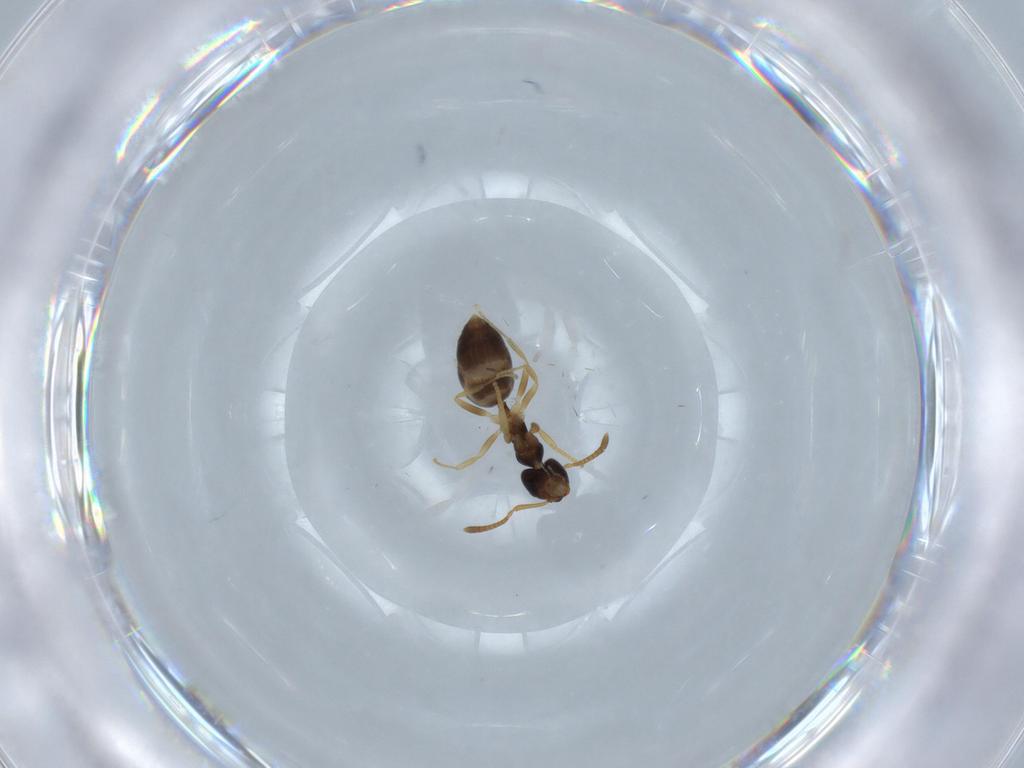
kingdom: Animalia
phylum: Arthropoda
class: Insecta
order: Hymenoptera
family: Formicidae
